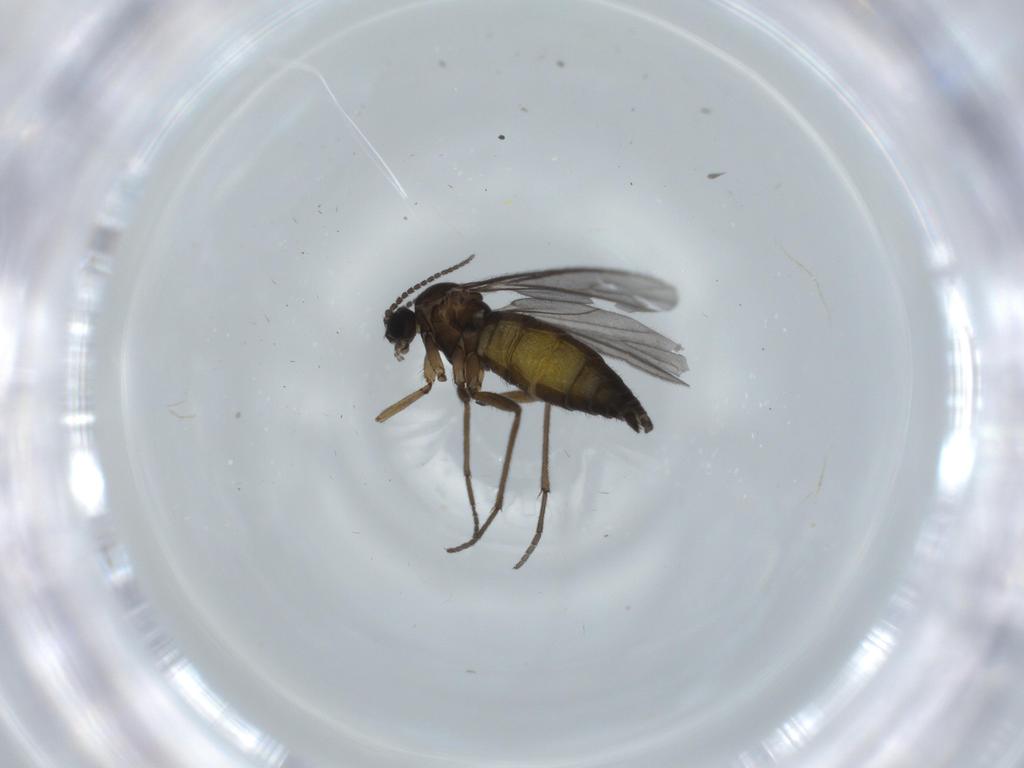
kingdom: Animalia
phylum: Arthropoda
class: Insecta
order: Diptera
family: Sciaridae
